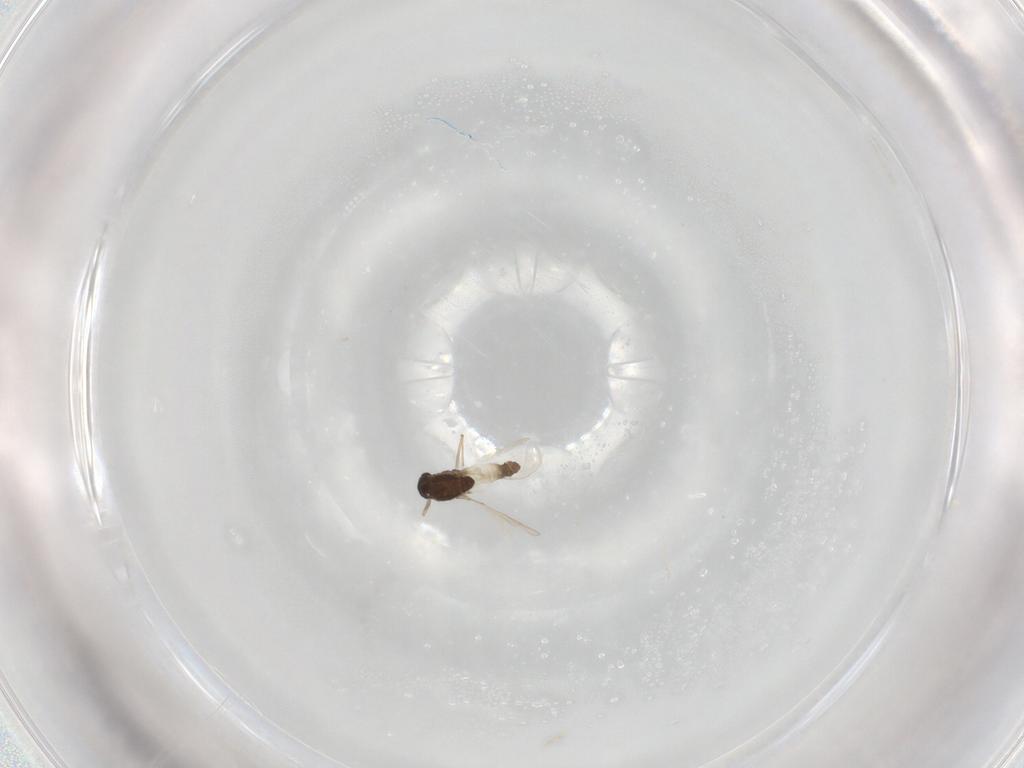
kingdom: Animalia
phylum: Arthropoda
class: Insecta
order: Diptera
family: Chironomidae
